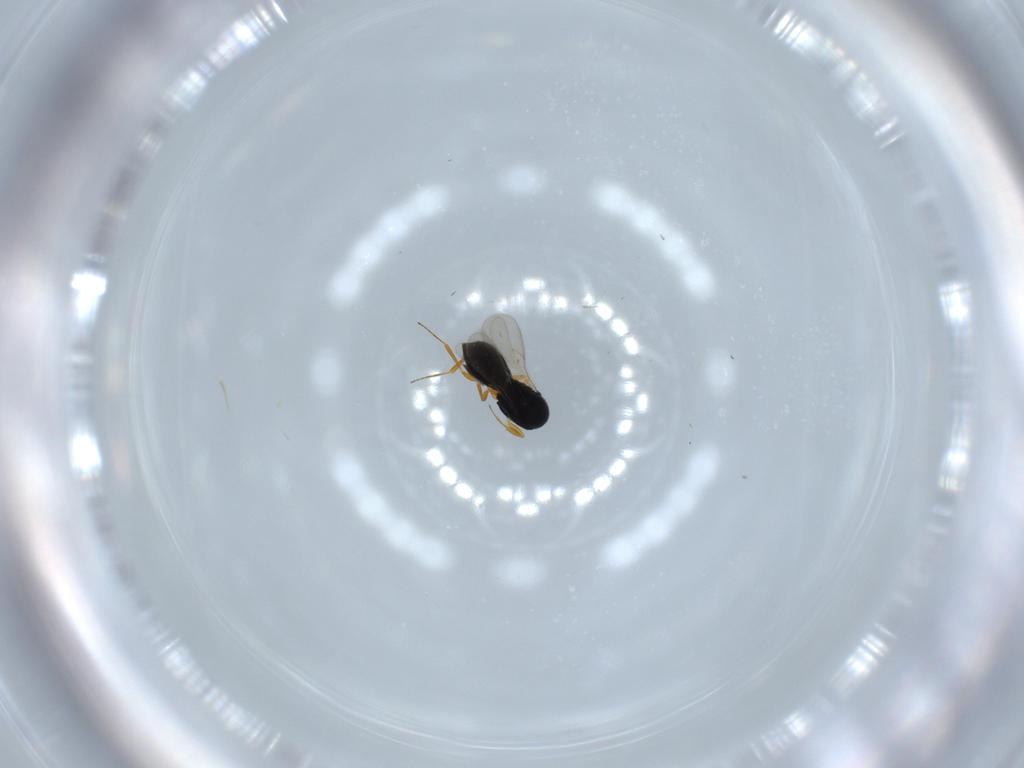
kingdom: Animalia
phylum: Arthropoda
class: Insecta
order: Hymenoptera
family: Scelionidae
